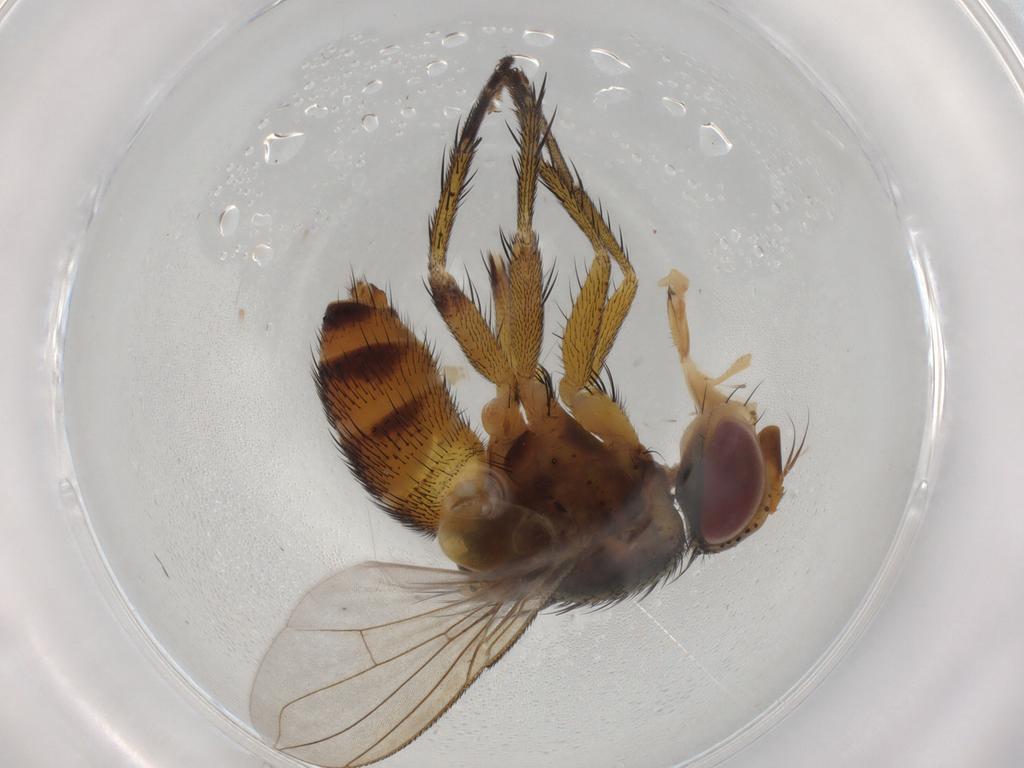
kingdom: Animalia
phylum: Arthropoda
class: Insecta
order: Diptera
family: Tachinidae
